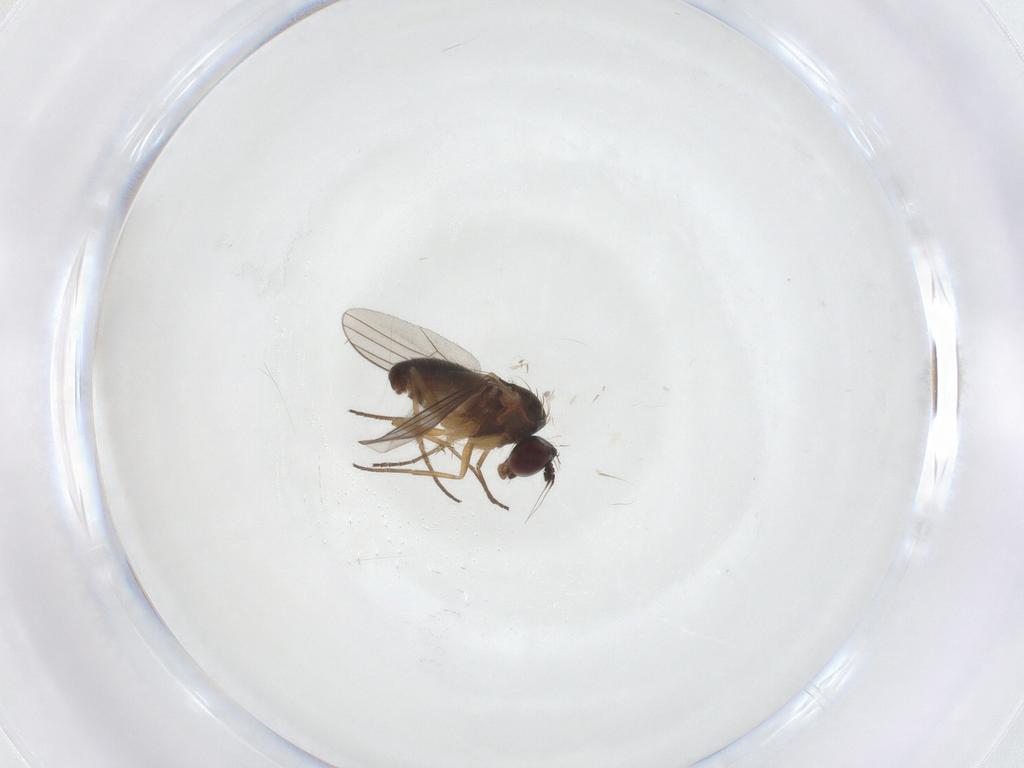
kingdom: Animalia
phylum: Arthropoda
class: Insecta
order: Diptera
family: Dolichopodidae
